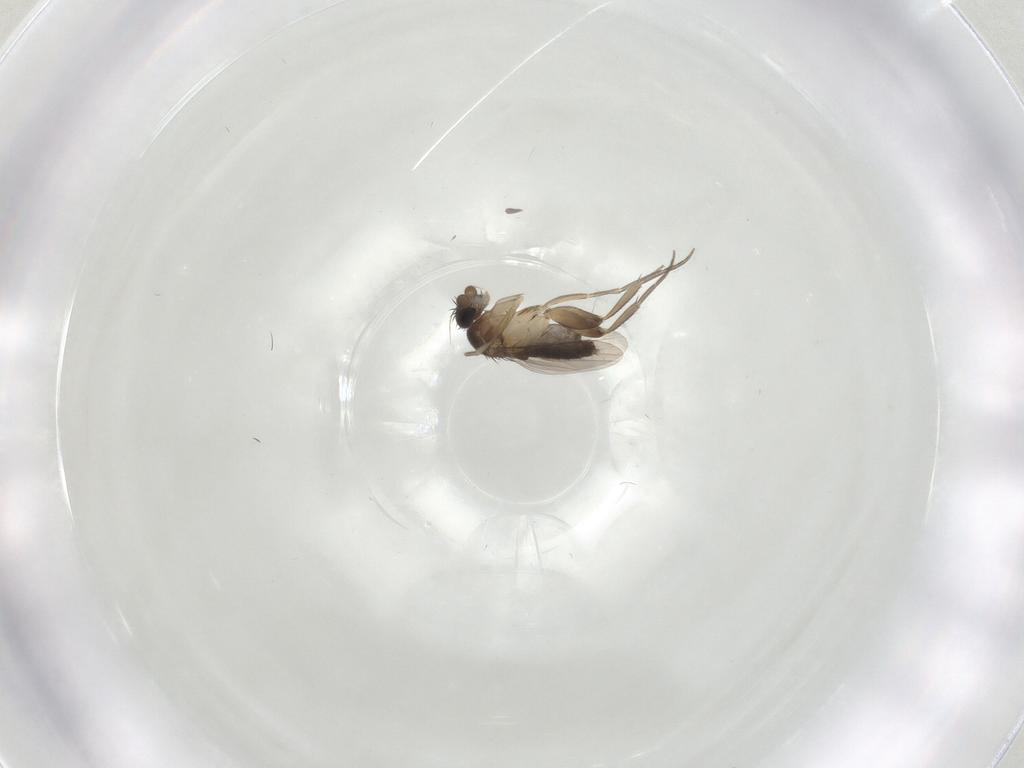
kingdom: Animalia
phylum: Arthropoda
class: Insecta
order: Diptera
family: Phoridae
